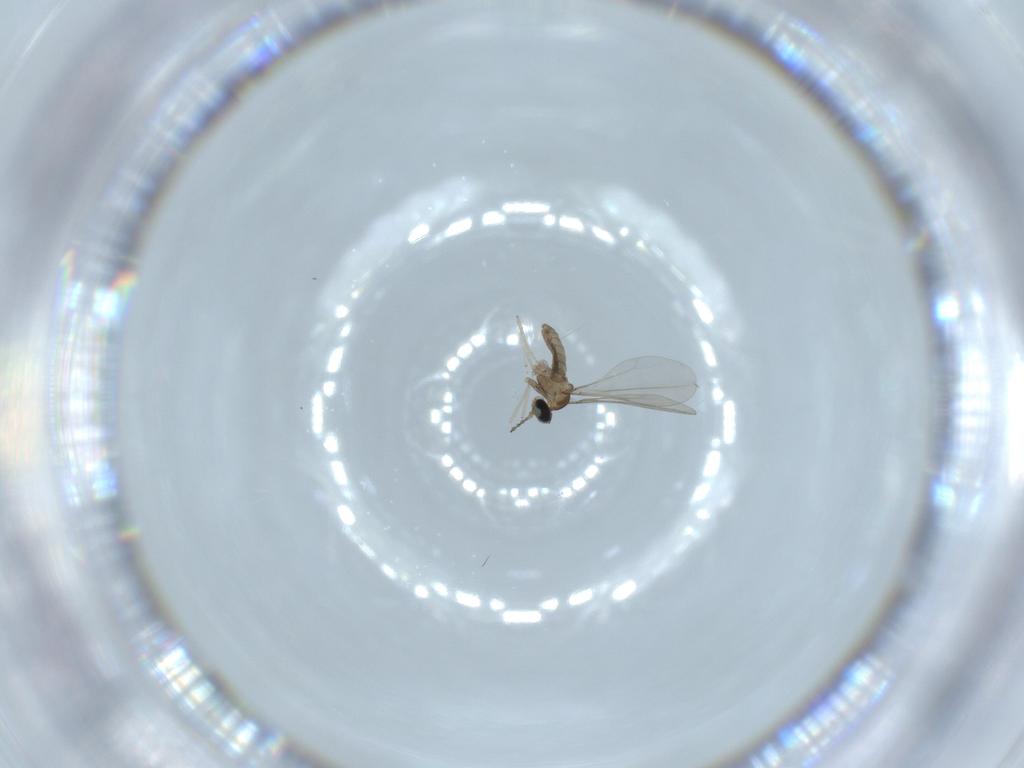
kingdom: Animalia
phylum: Arthropoda
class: Insecta
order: Diptera
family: Cecidomyiidae
